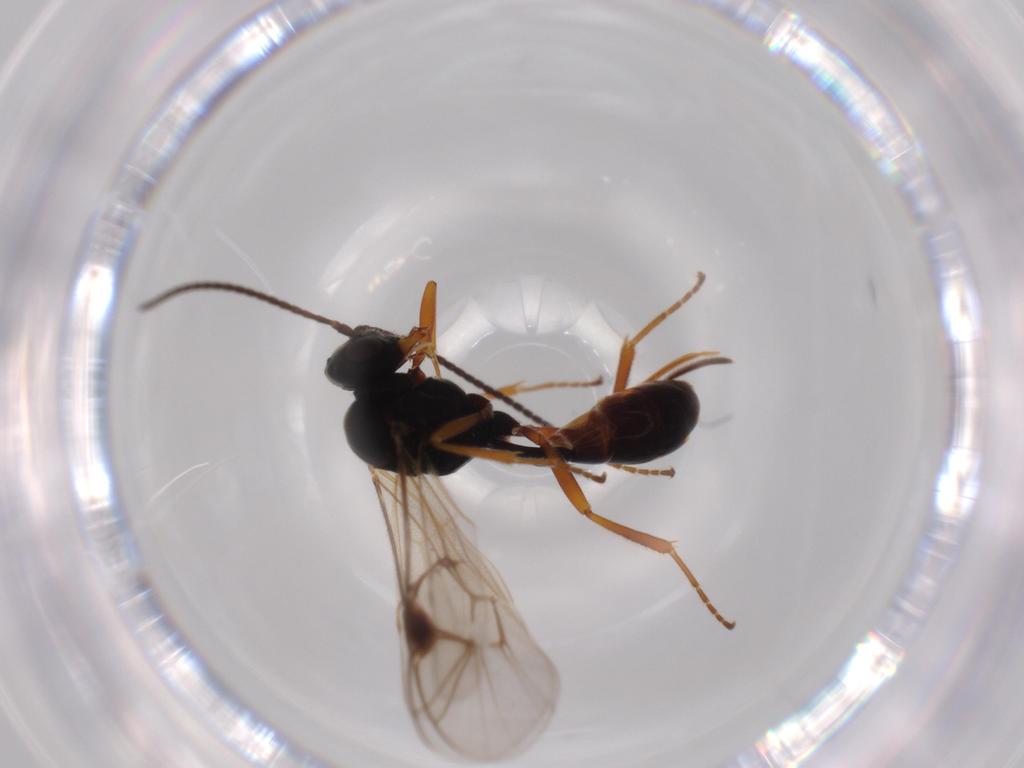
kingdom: Animalia
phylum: Arthropoda
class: Insecta
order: Hymenoptera
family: Ichneumonidae
